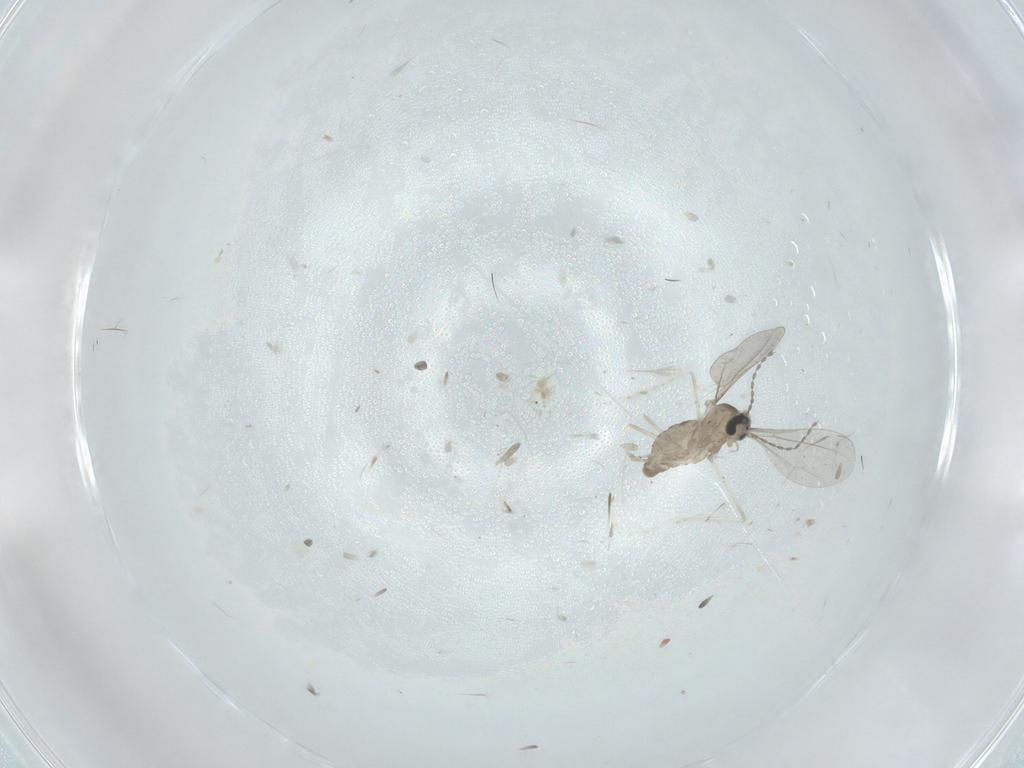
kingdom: Animalia
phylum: Arthropoda
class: Insecta
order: Diptera
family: Cecidomyiidae
